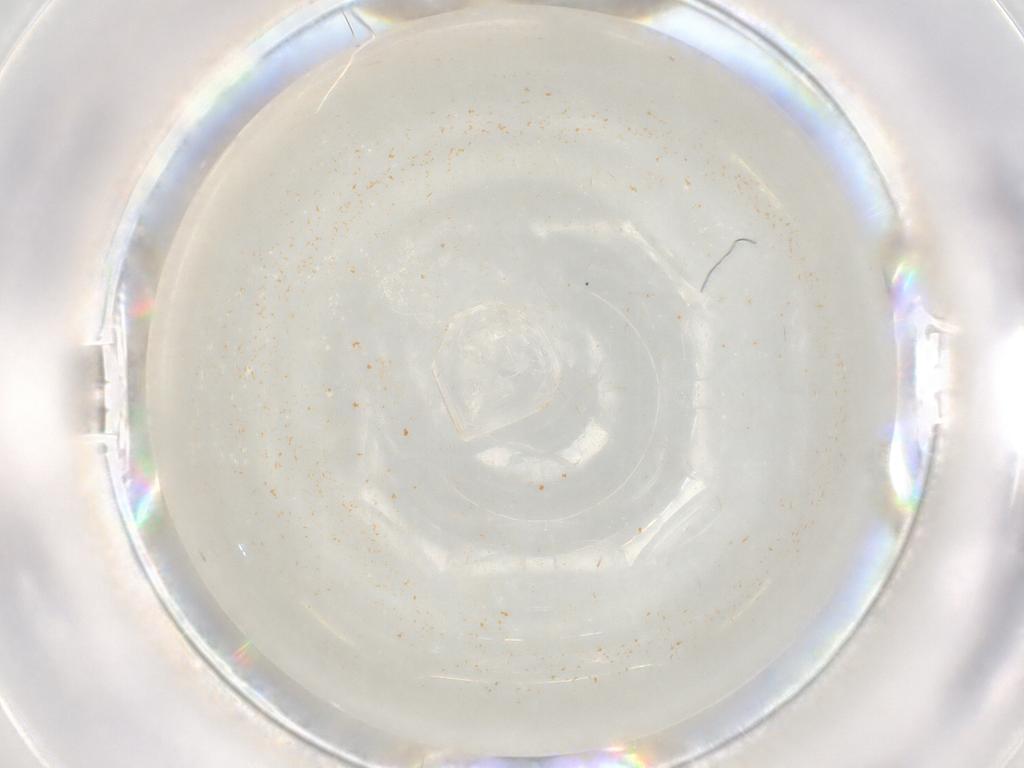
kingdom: Animalia
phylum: Arthropoda
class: Insecta
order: Diptera
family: Cecidomyiidae
